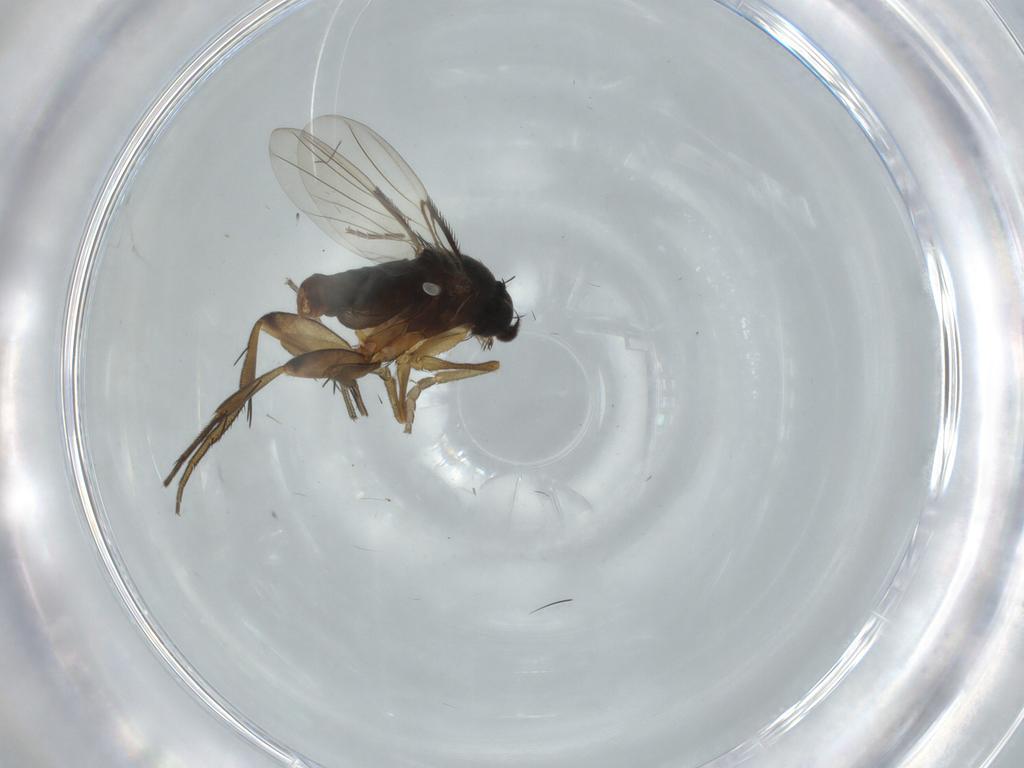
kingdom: Animalia
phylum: Arthropoda
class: Insecta
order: Diptera
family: Phoridae
